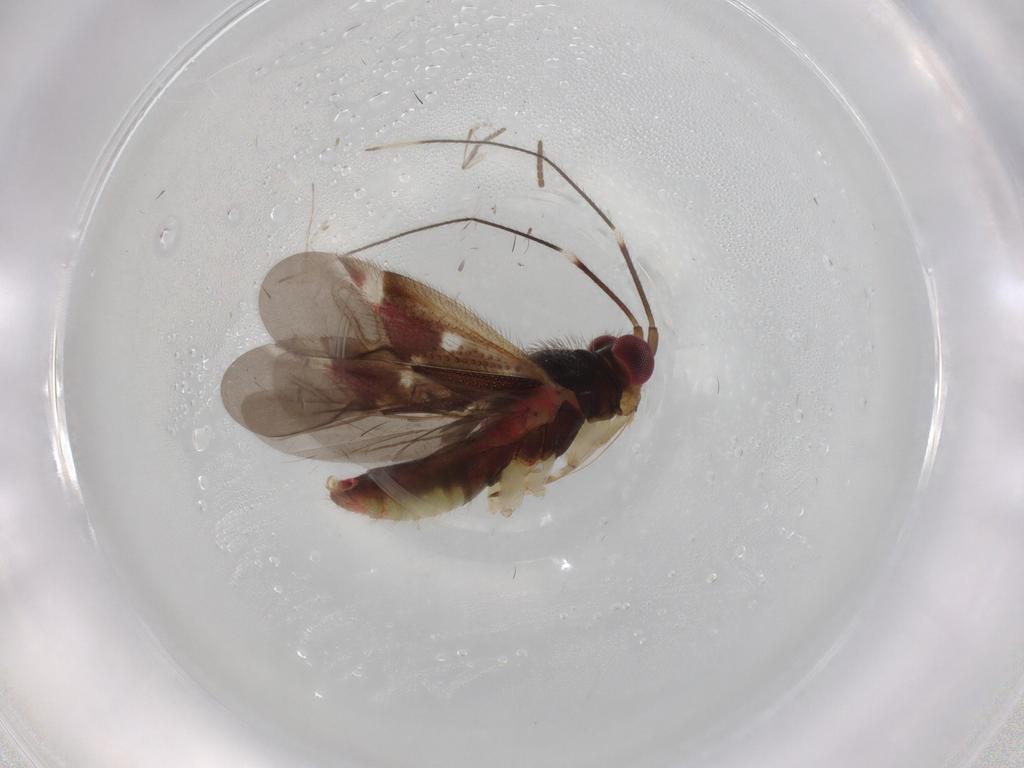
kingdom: Animalia
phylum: Arthropoda
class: Insecta
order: Hemiptera
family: Miridae
